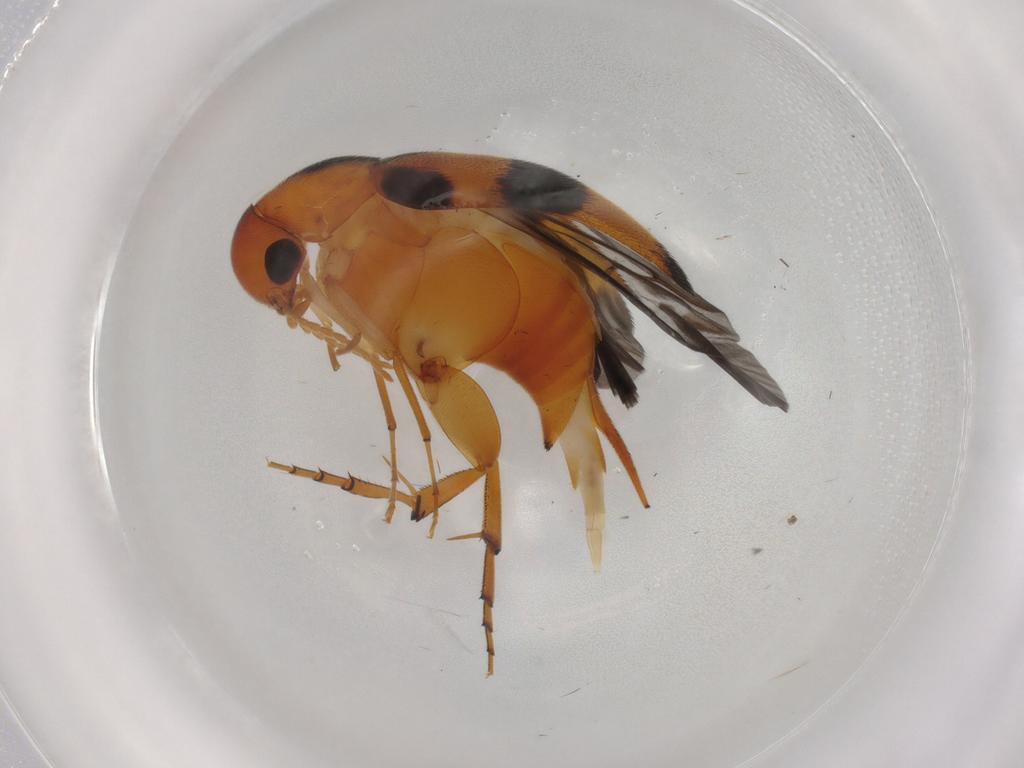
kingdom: Animalia
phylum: Arthropoda
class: Insecta
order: Coleoptera
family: Mordellidae
